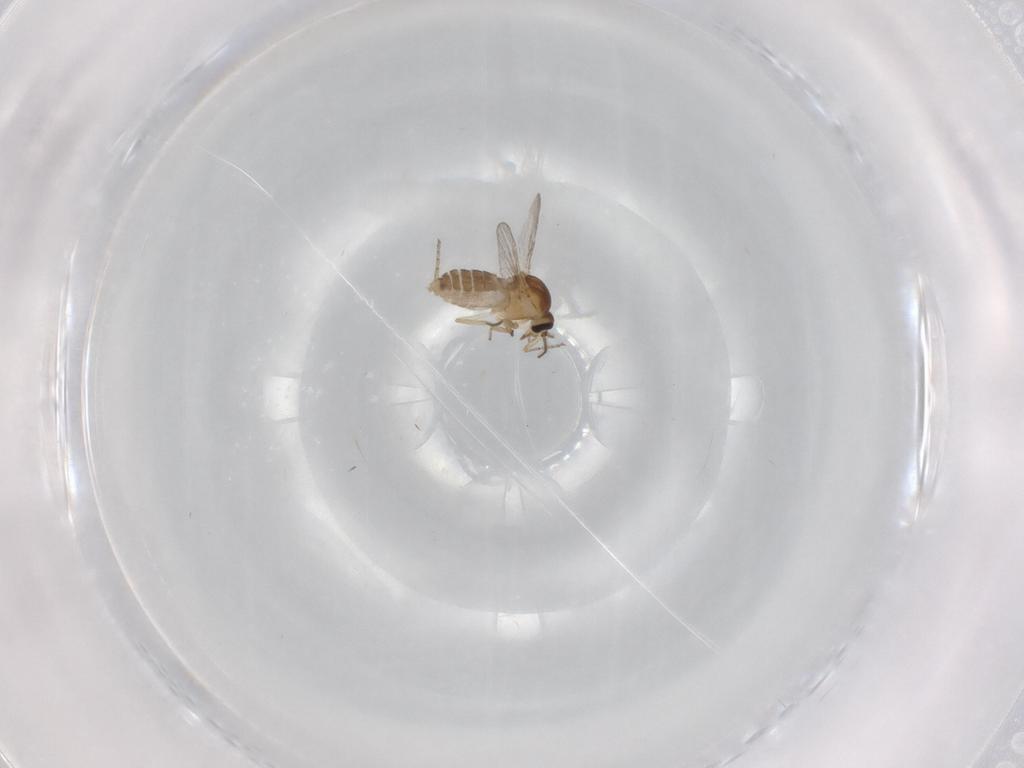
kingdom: Animalia
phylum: Arthropoda
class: Insecta
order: Diptera
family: Ceratopogonidae
